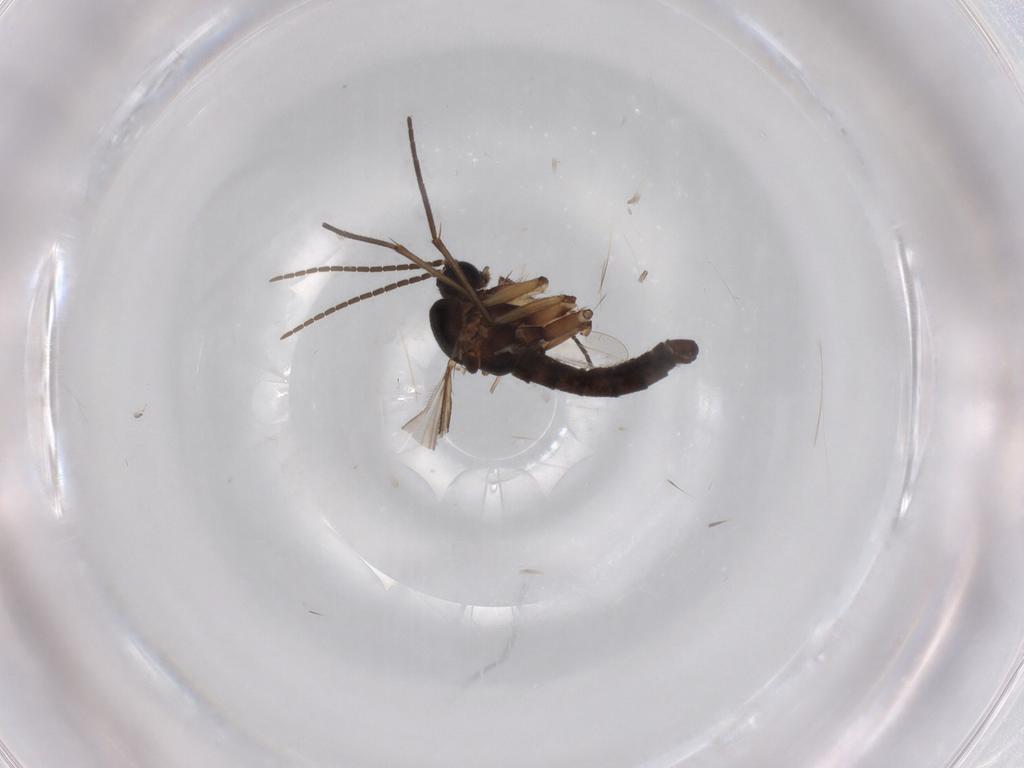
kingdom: Animalia
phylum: Arthropoda
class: Insecta
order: Diptera
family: Sciaridae
